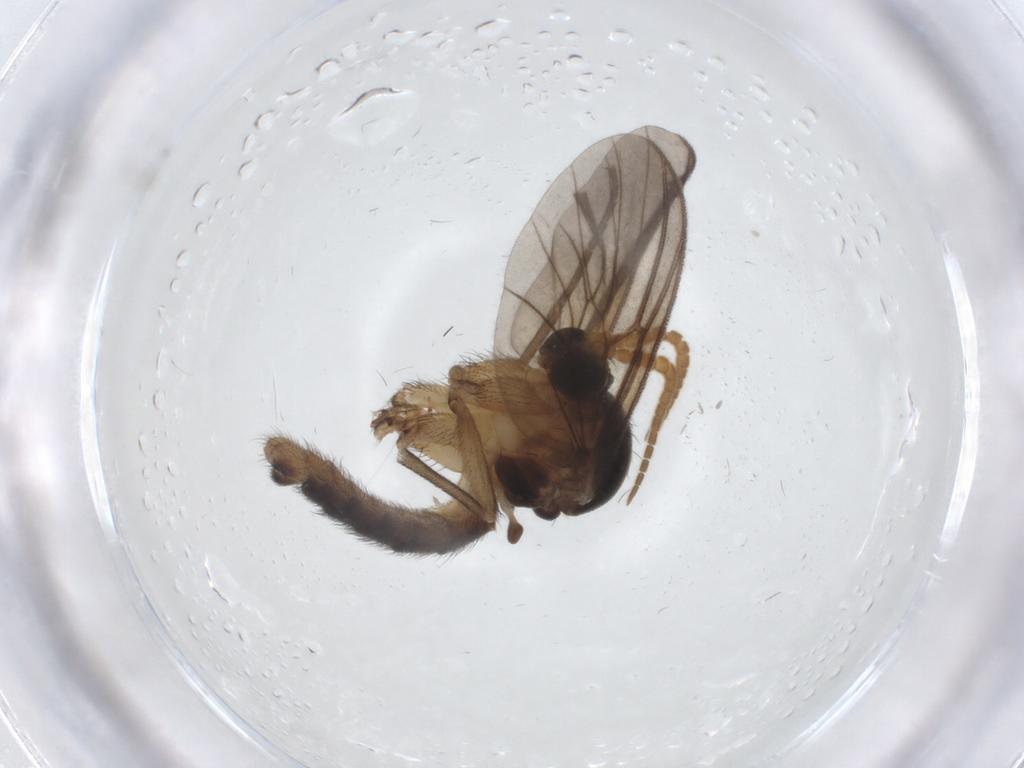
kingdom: Animalia
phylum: Arthropoda
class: Insecta
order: Diptera
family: Mycetophilidae
